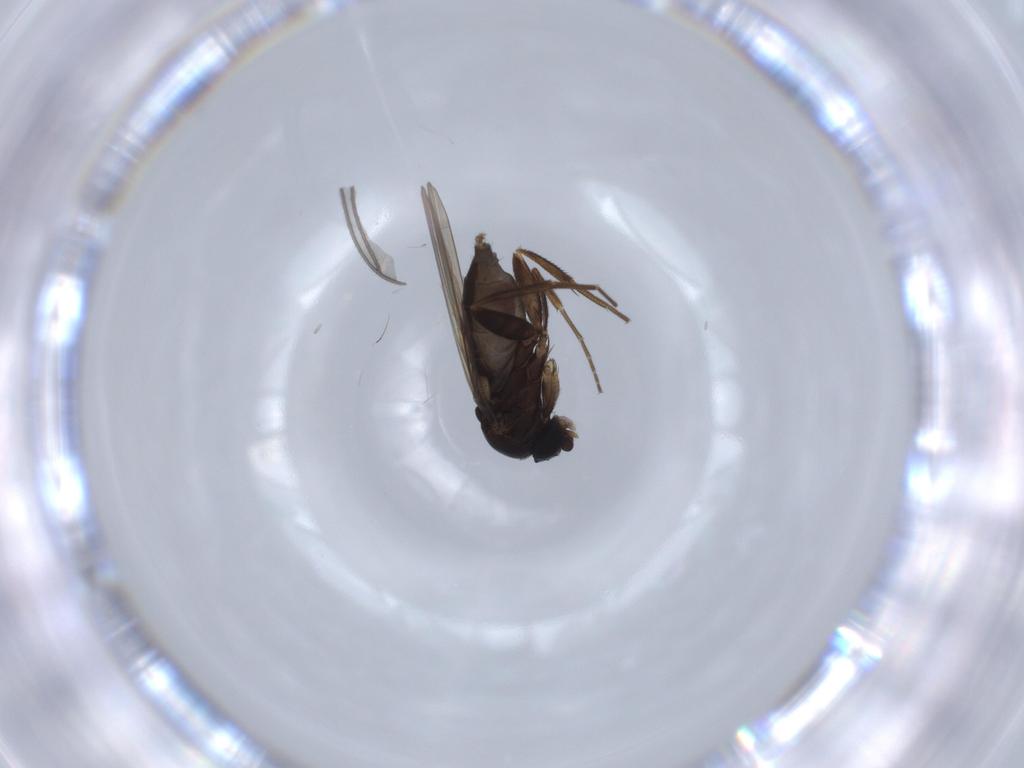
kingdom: Animalia
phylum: Arthropoda
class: Insecta
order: Diptera
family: Phoridae
